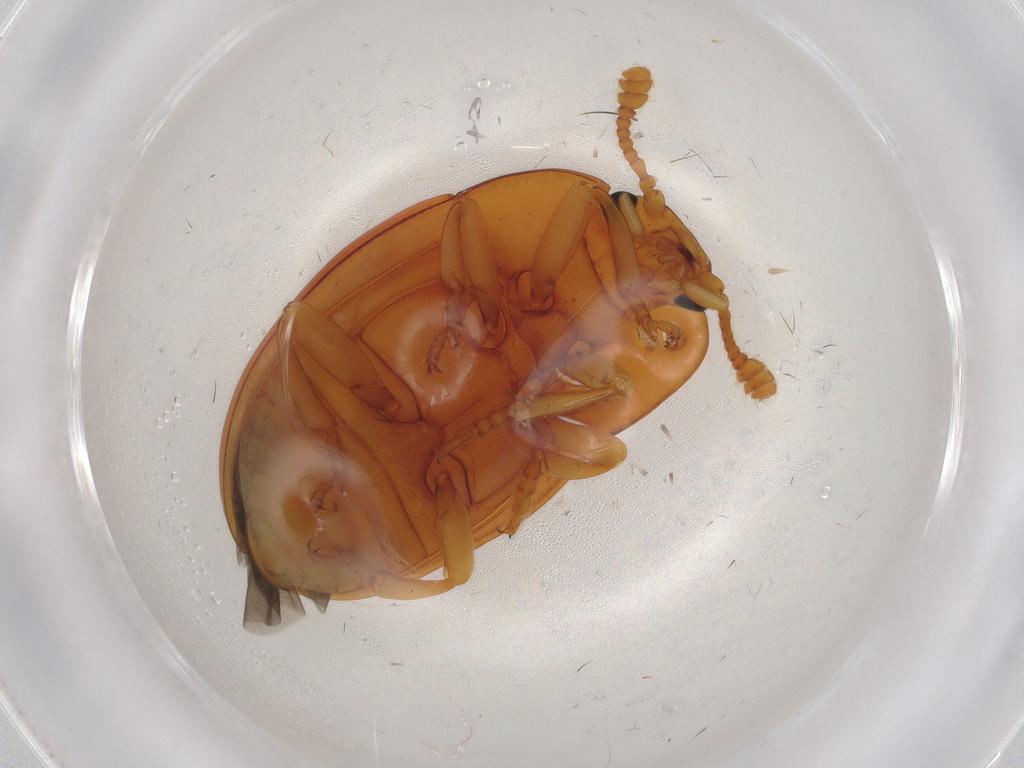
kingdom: Animalia
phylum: Arthropoda
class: Insecta
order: Coleoptera
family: Erotylidae
